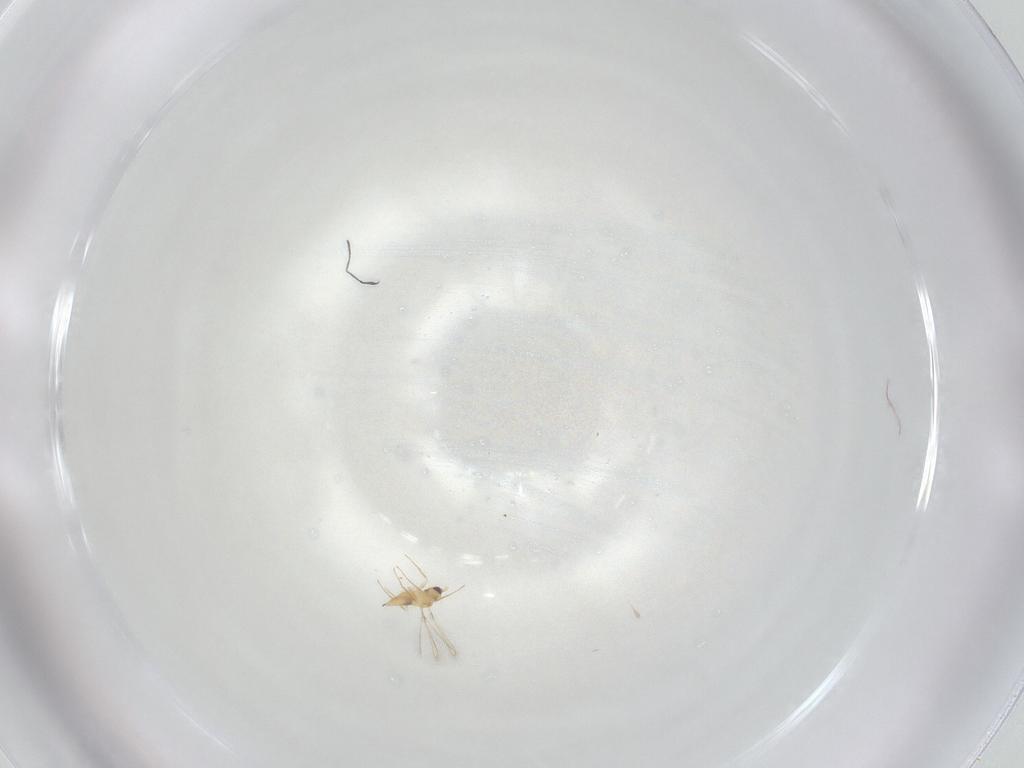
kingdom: Animalia
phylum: Arthropoda
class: Insecta
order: Hymenoptera
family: Mymaridae
